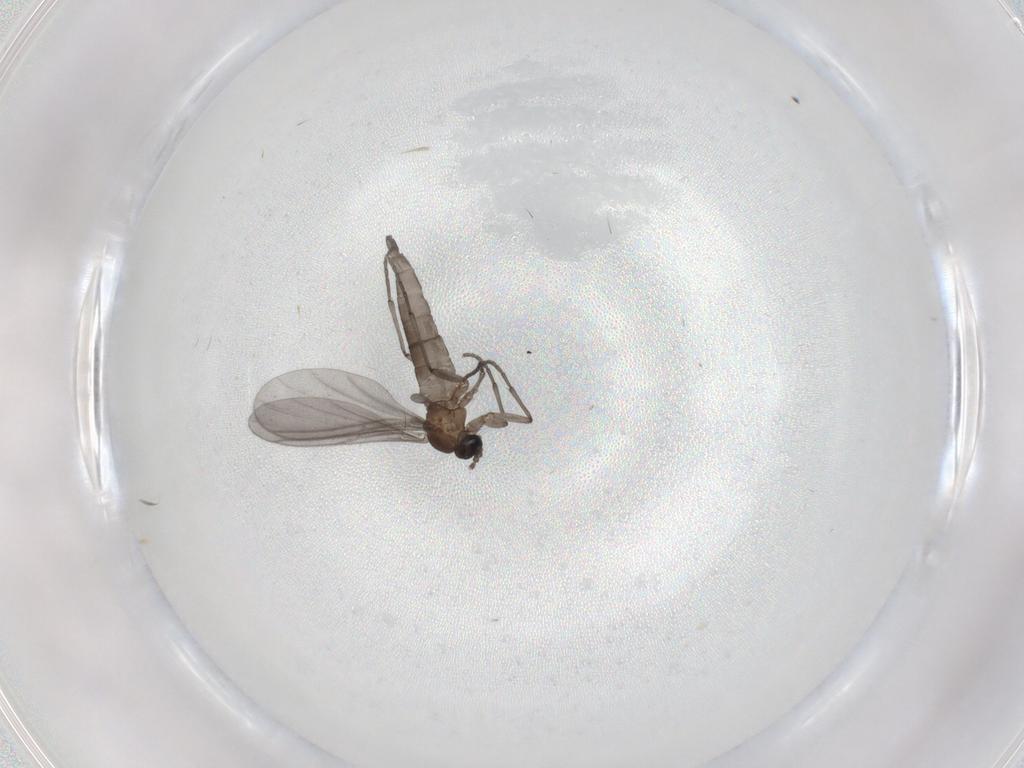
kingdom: Animalia
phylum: Arthropoda
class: Insecta
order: Diptera
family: Sciaridae
